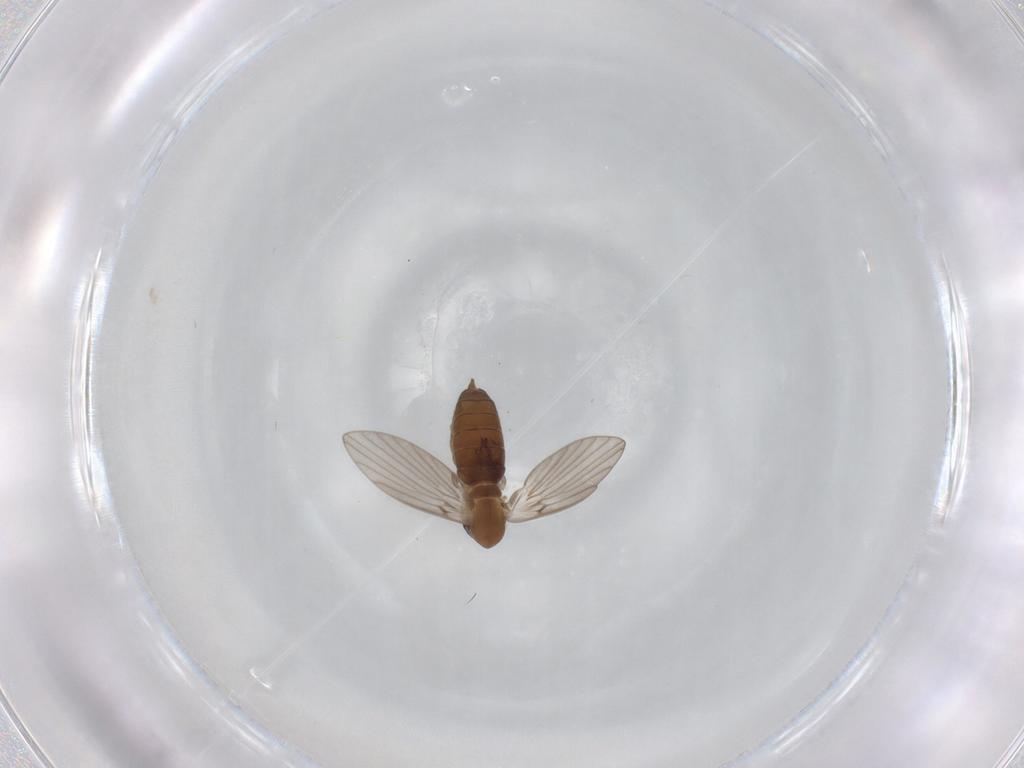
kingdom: Animalia
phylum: Arthropoda
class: Insecta
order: Diptera
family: Psychodidae
